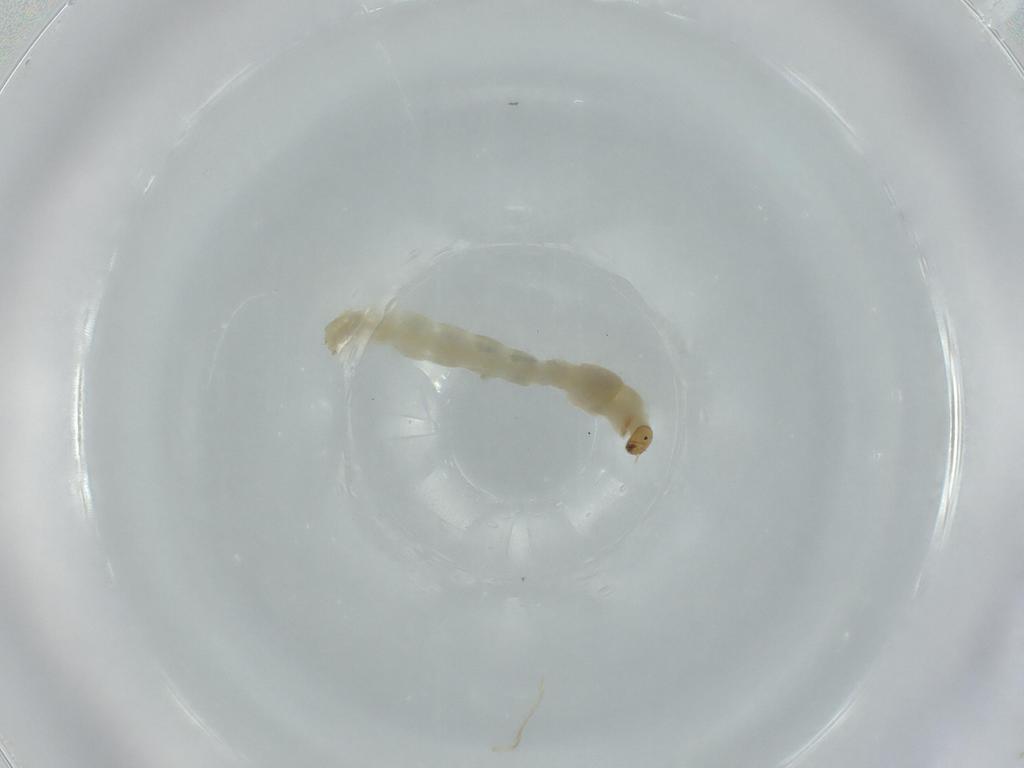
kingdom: Animalia
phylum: Arthropoda
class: Insecta
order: Diptera
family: Chironomidae
